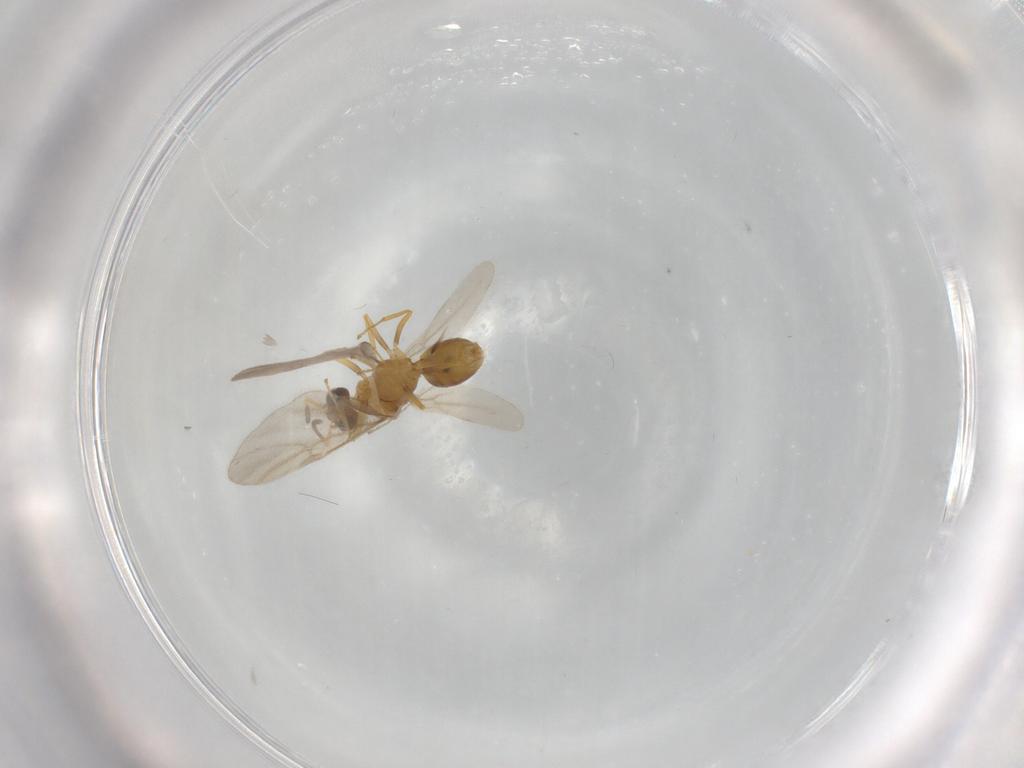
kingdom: Animalia
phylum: Arthropoda
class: Insecta
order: Hymenoptera
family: Formicidae
